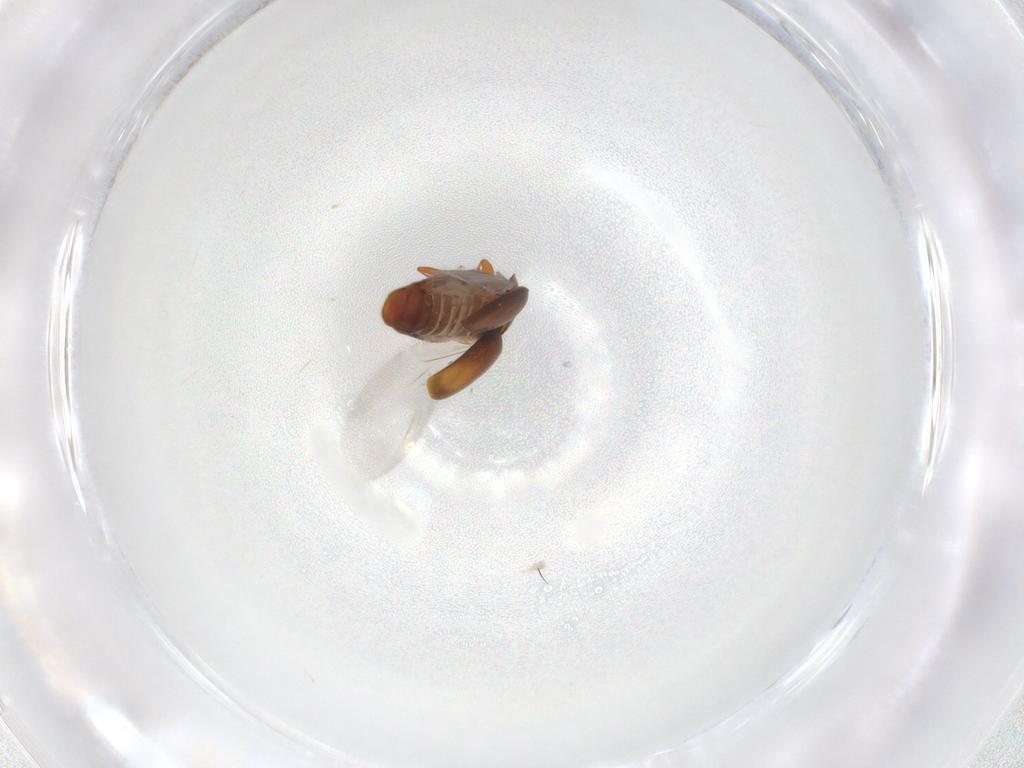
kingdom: Animalia
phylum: Arthropoda
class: Insecta
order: Coleoptera
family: Corylophidae
